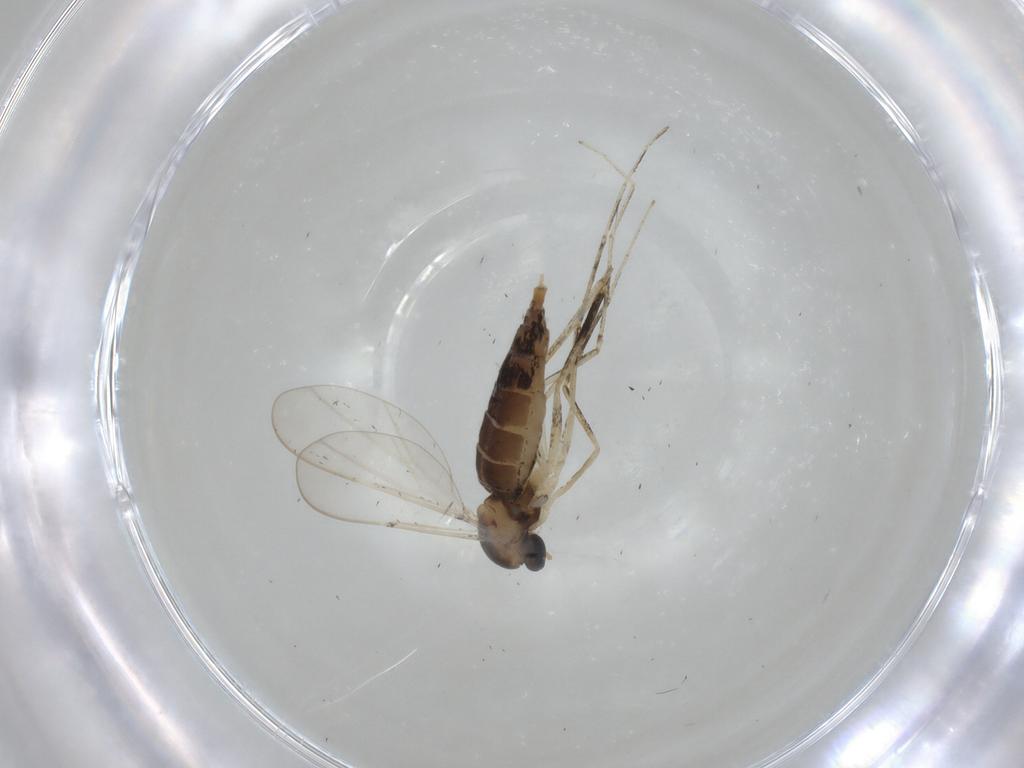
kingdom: Animalia
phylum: Arthropoda
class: Insecta
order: Diptera
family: Cecidomyiidae
